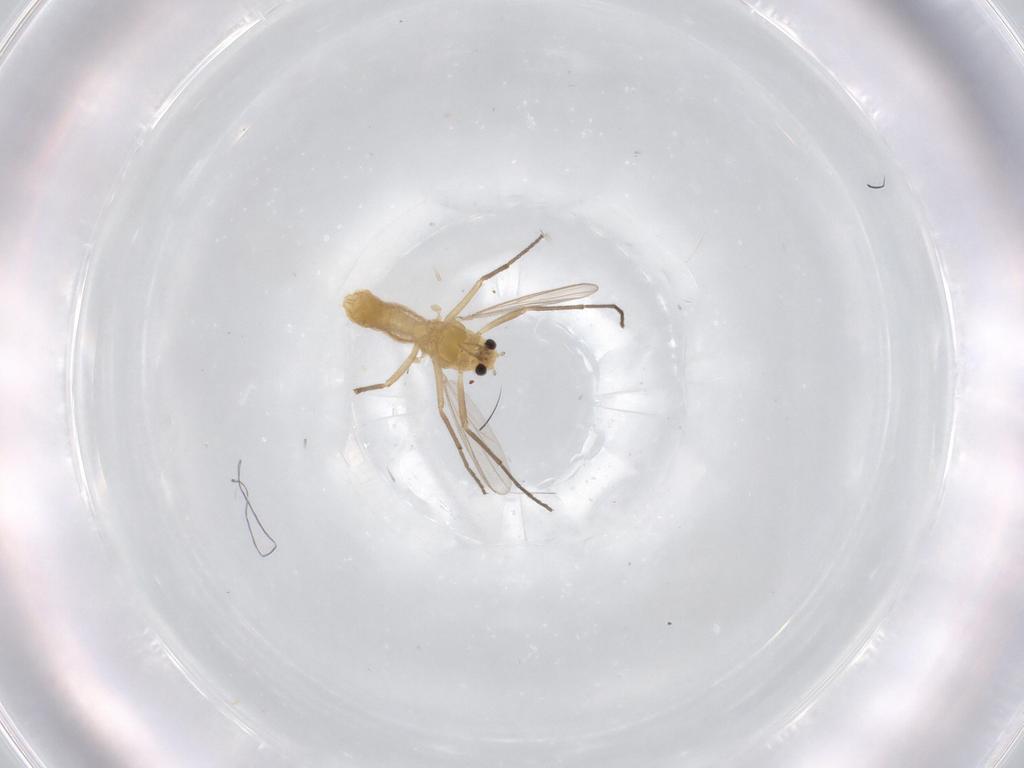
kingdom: Animalia
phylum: Arthropoda
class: Insecta
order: Diptera
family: Chironomidae
